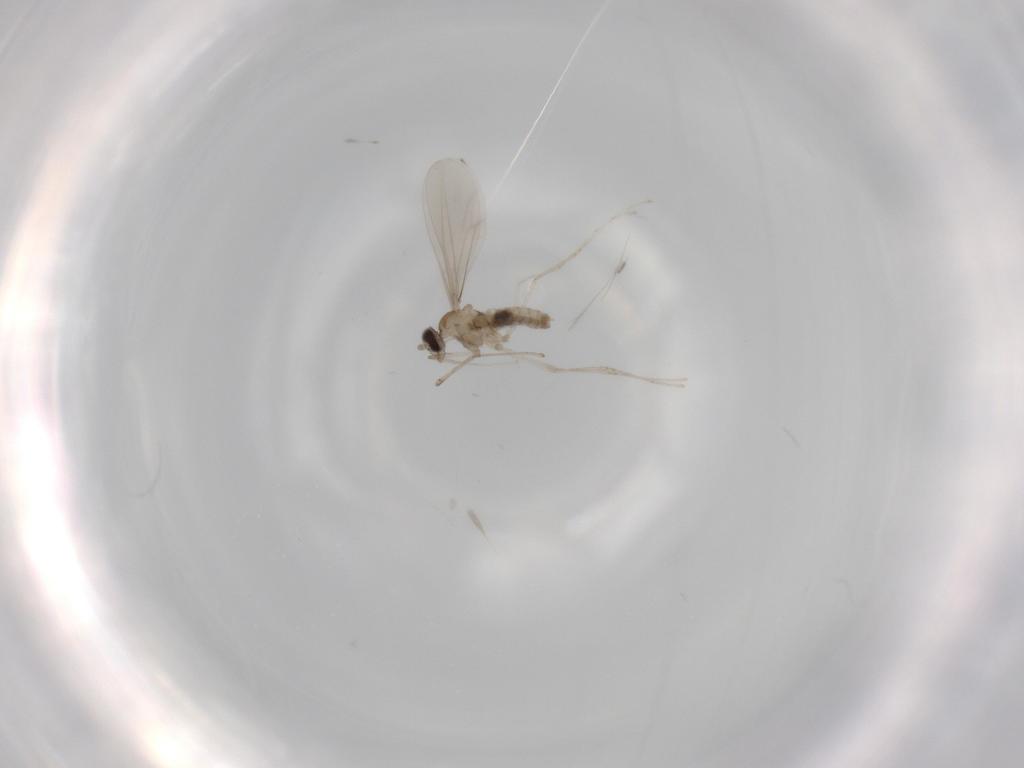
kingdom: Animalia
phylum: Arthropoda
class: Insecta
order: Diptera
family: Cecidomyiidae
